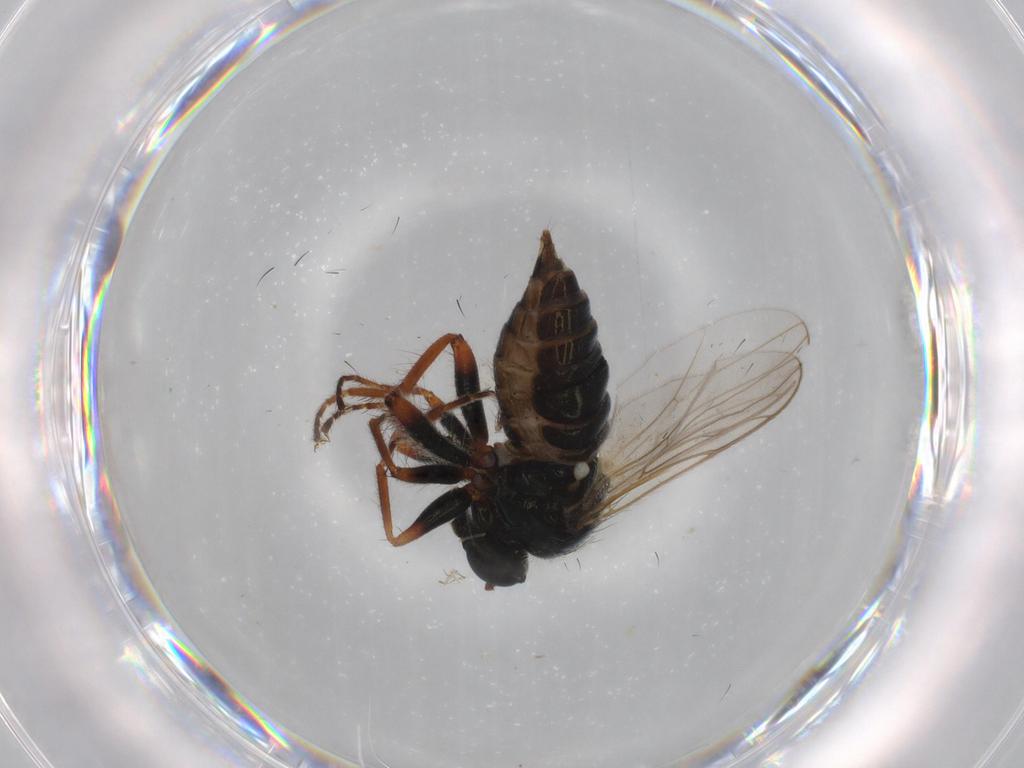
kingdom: Animalia
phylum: Arthropoda
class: Insecta
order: Diptera
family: Hybotidae
